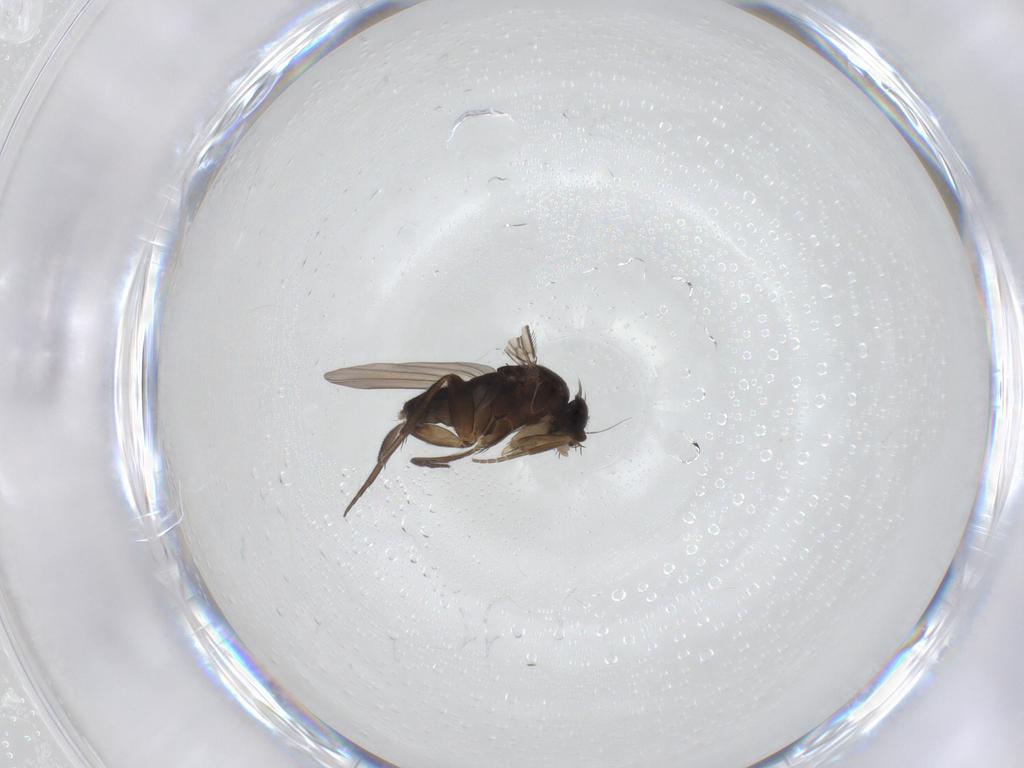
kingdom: Animalia
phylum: Arthropoda
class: Insecta
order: Diptera
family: Phoridae
